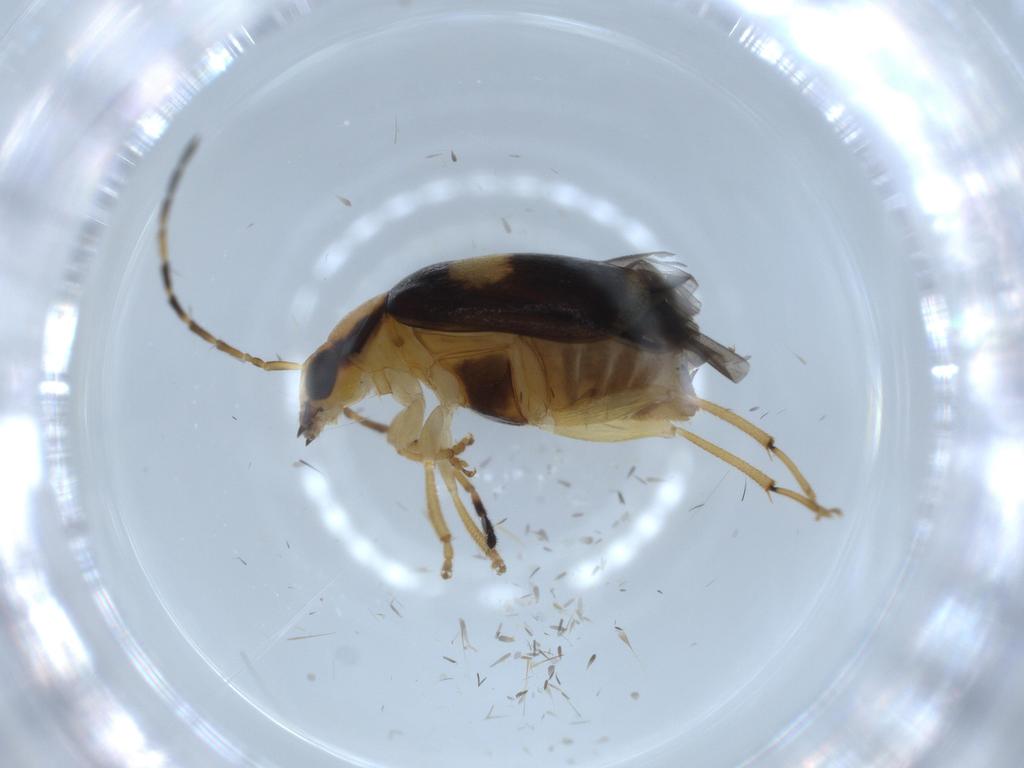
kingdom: Animalia
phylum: Arthropoda
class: Insecta
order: Coleoptera
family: Chrysomelidae
